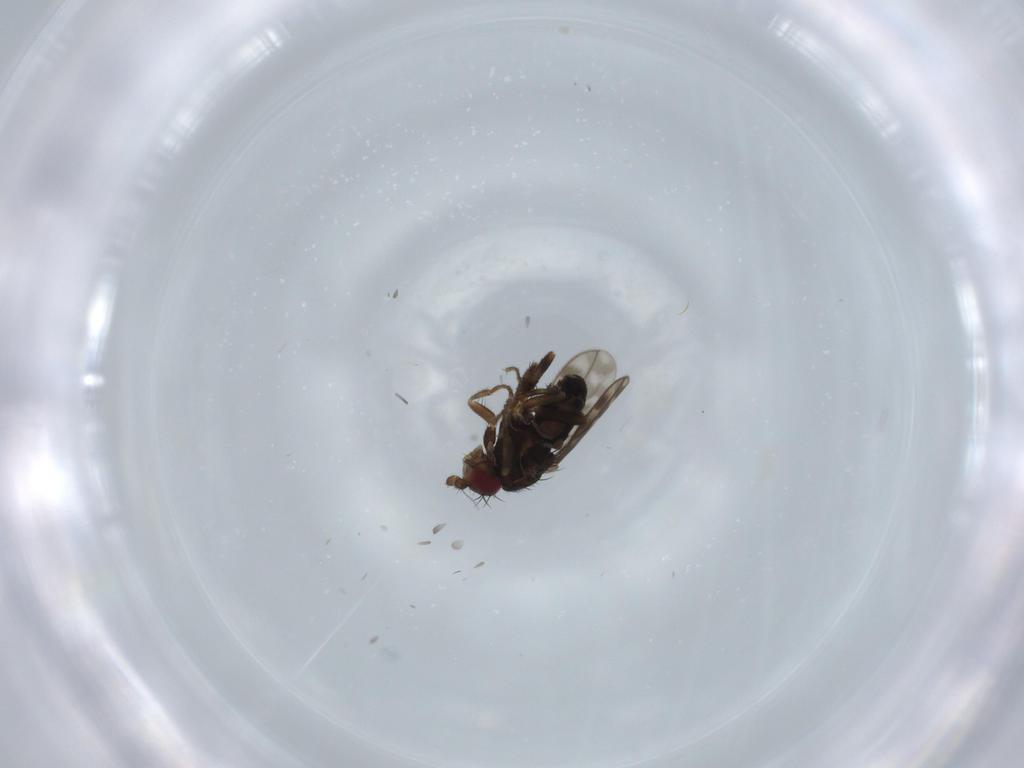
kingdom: Animalia
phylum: Arthropoda
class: Insecta
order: Diptera
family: Sphaeroceridae
